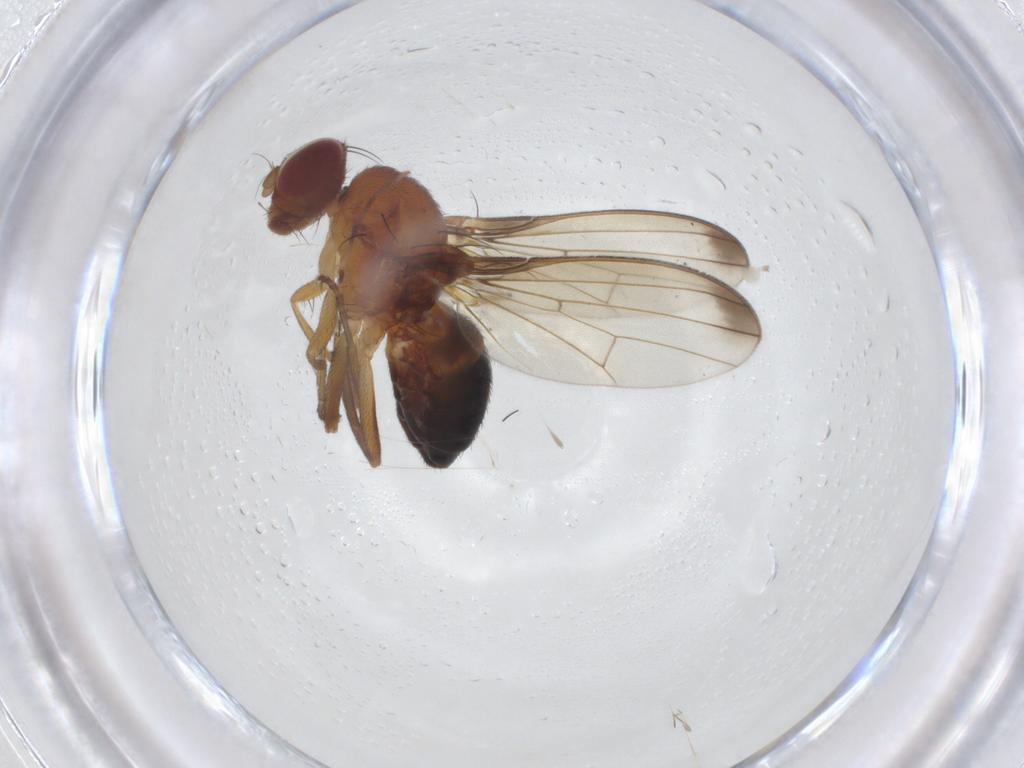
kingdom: Animalia
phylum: Arthropoda
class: Insecta
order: Diptera
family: Piophilidae
